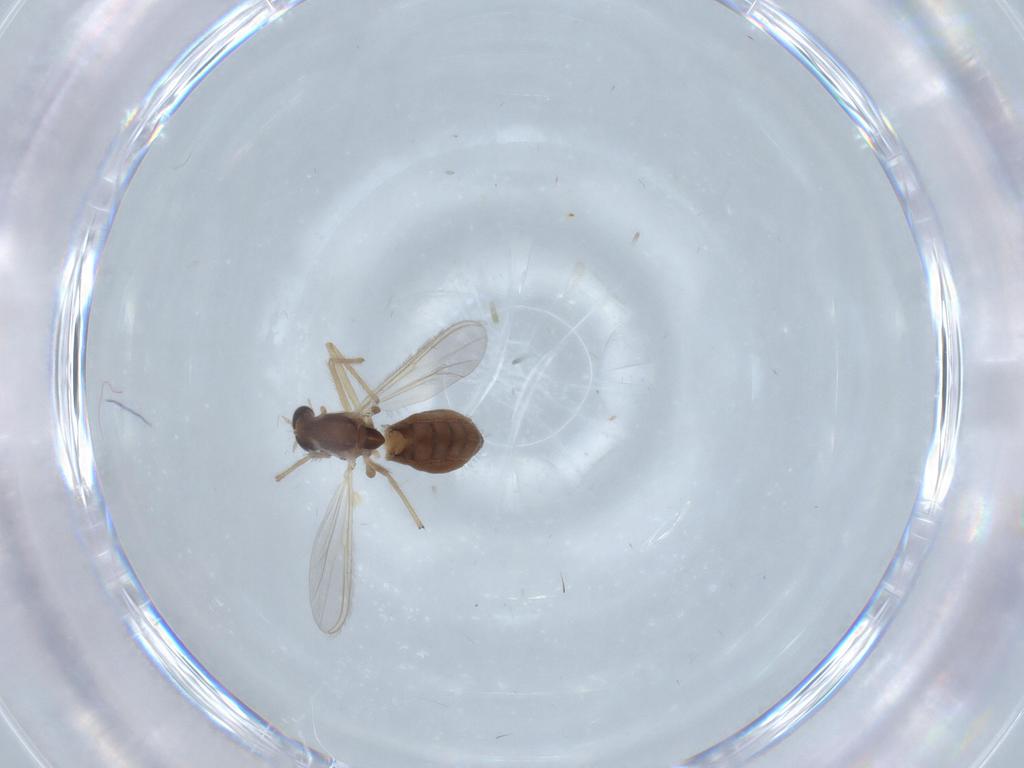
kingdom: Animalia
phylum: Arthropoda
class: Insecta
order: Diptera
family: Chironomidae
